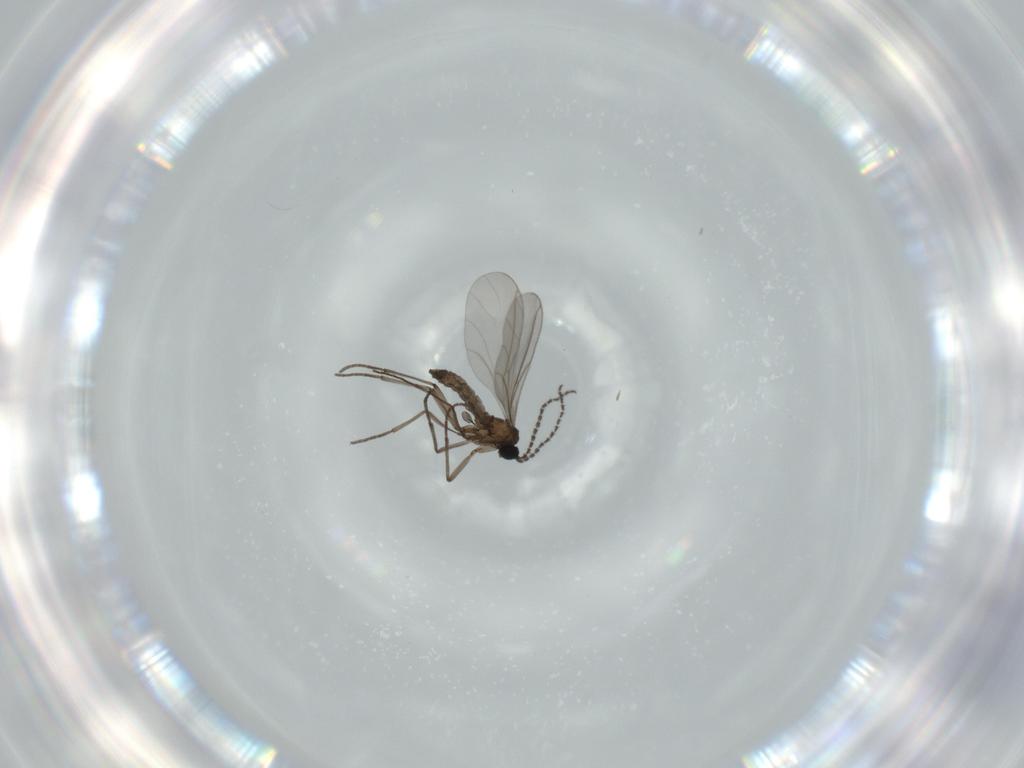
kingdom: Animalia
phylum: Arthropoda
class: Insecta
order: Diptera
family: Sciaridae
